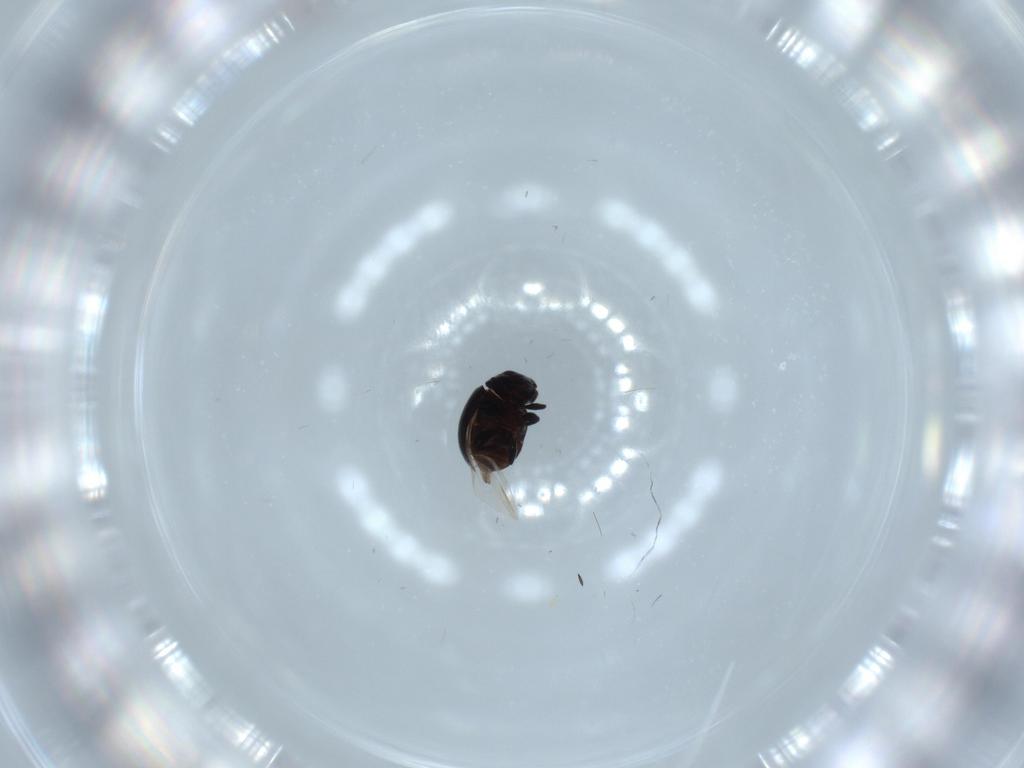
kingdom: Animalia
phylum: Arthropoda
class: Insecta
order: Coleoptera
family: Coccinellidae
